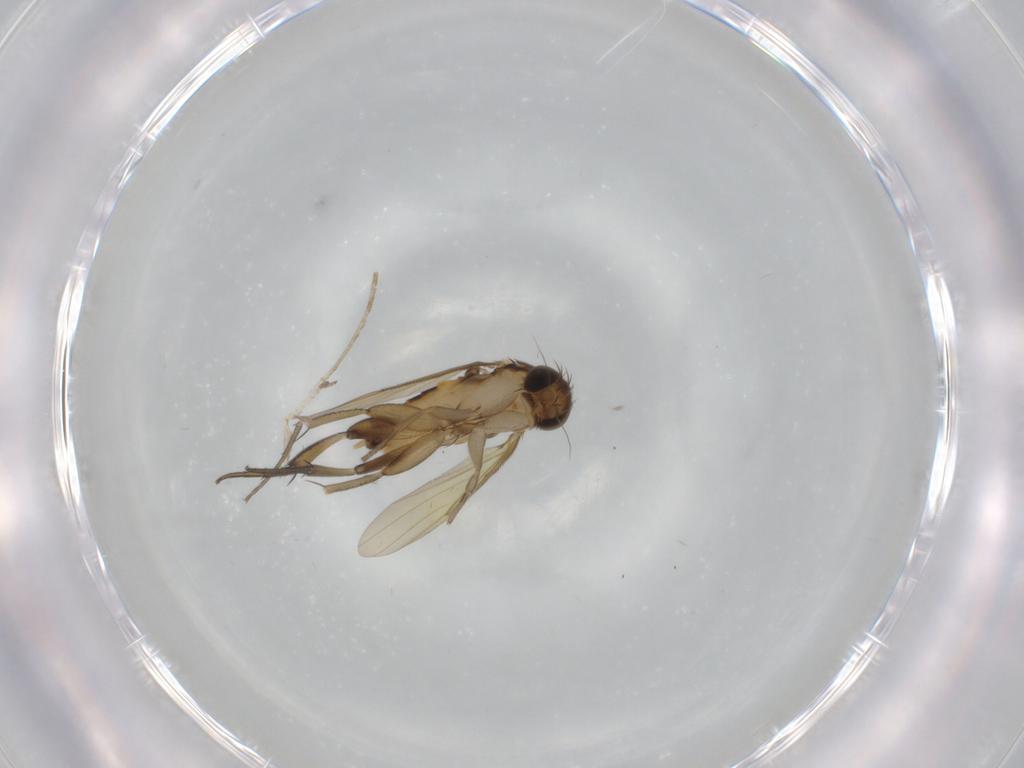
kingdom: Animalia
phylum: Arthropoda
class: Insecta
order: Diptera
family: Phoridae
